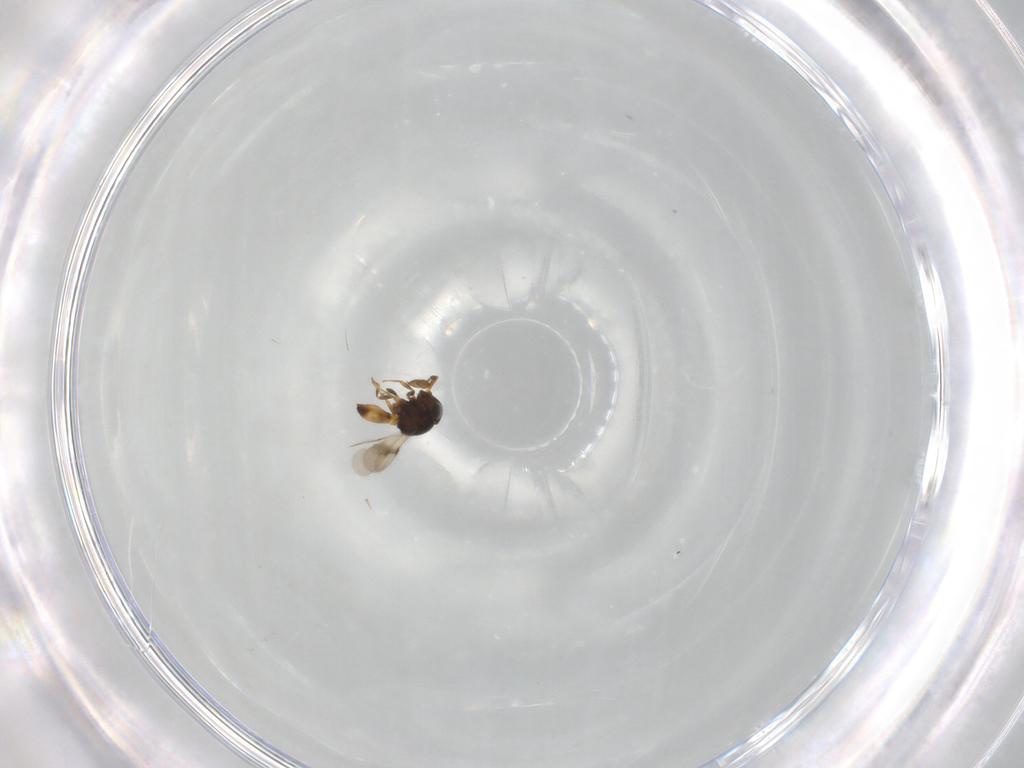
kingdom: Animalia
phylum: Arthropoda
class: Insecta
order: Hymenoptera
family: Scelionidae
